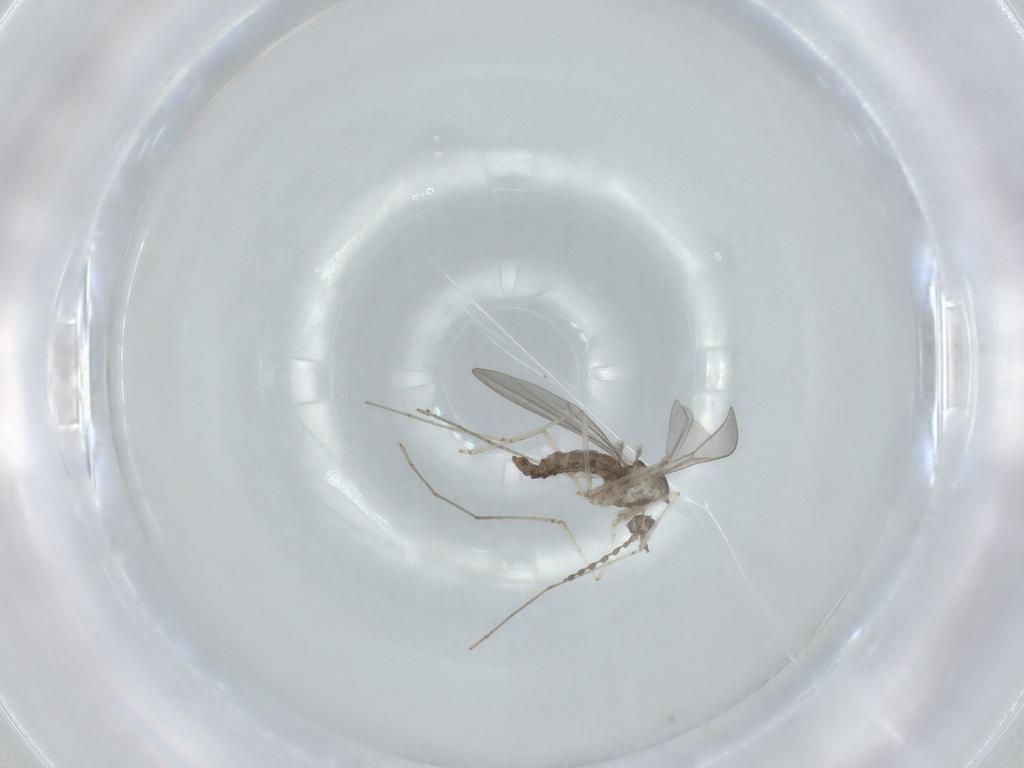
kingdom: Animalia
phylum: Arthropoda
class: Insecta
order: Diptera
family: Cecidomyiidae
